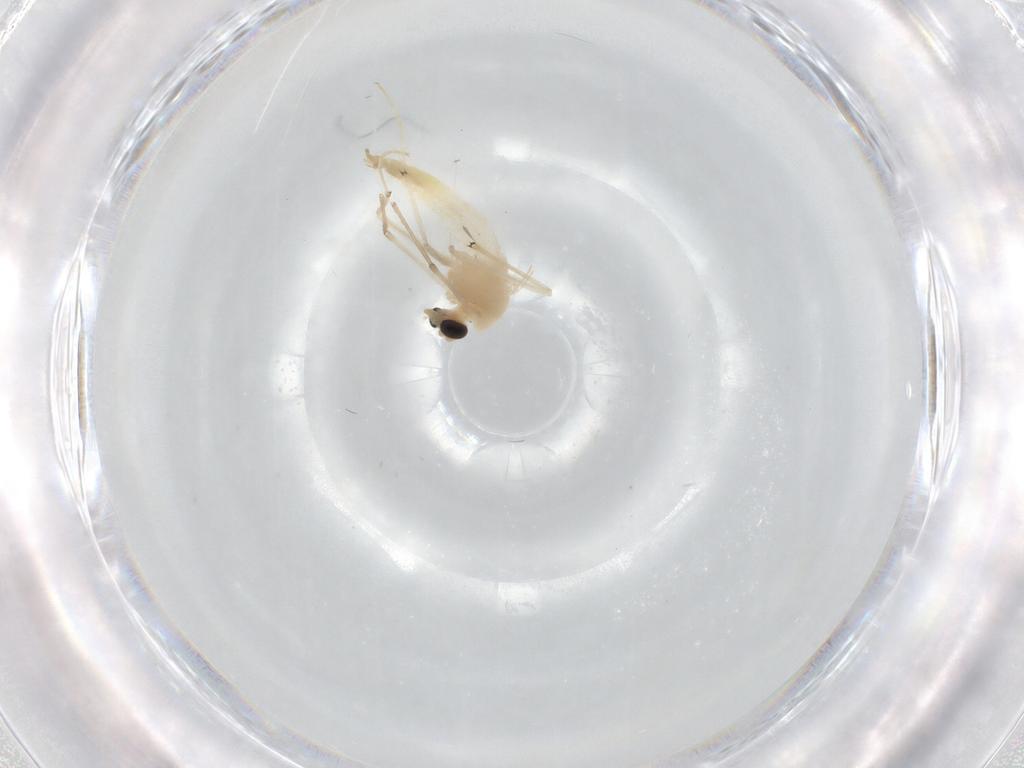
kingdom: Animalia
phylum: Arthropoda
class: Insecta
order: Diptera
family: Chironomidae
